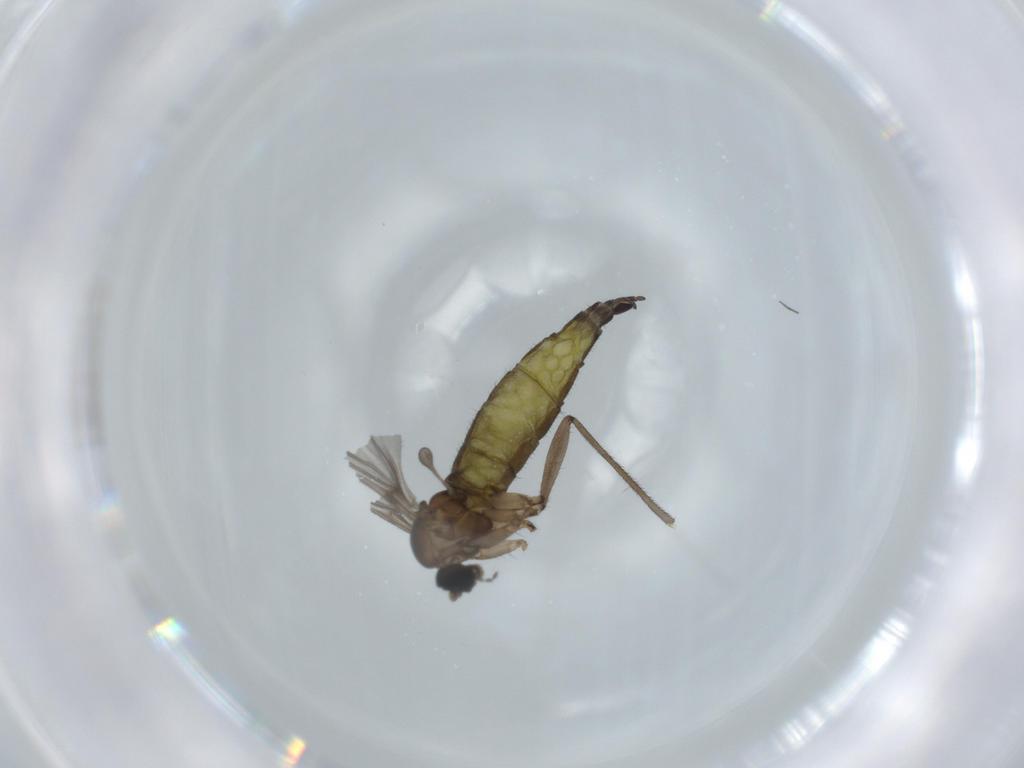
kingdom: Animalia
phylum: Arthropoda
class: Insecta
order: Diptera
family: Sciaridae
